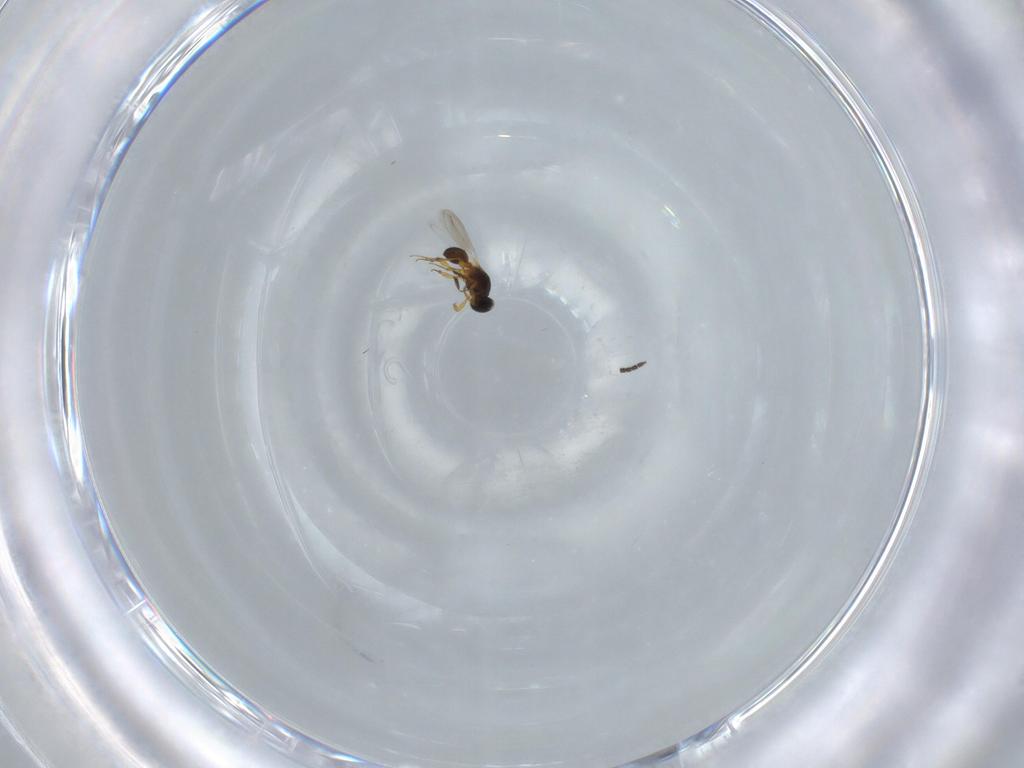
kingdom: Animalia
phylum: Arthropoda
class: Insecta
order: Hymenoptera
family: Scelionidae
